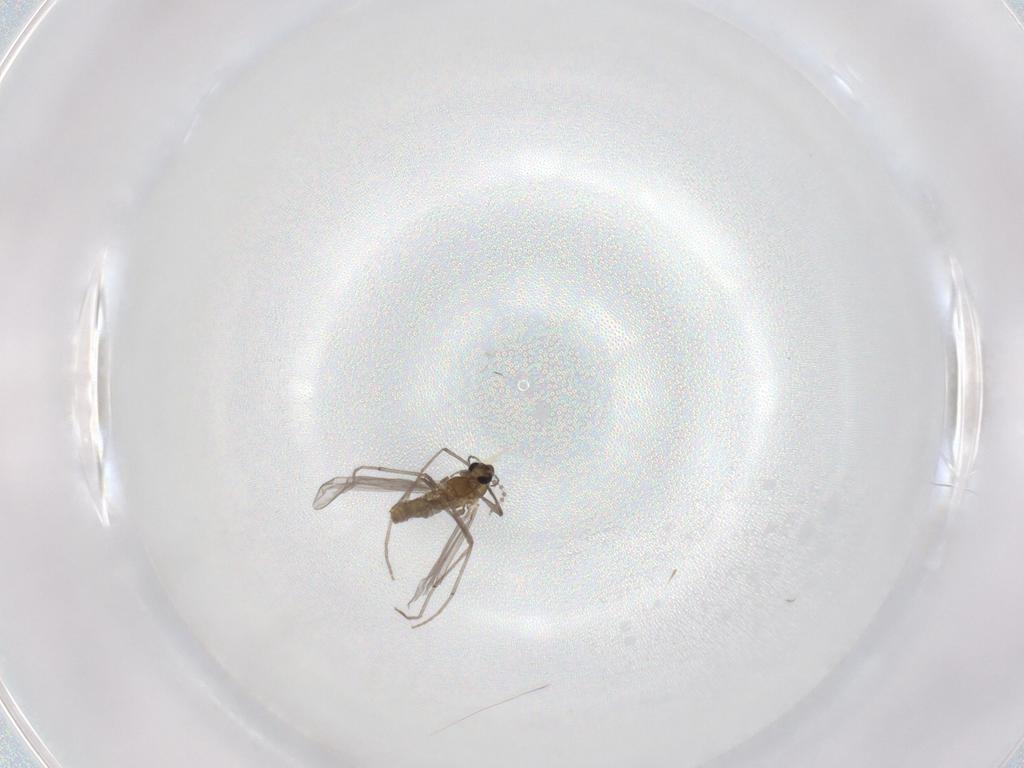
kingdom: Animalia
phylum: Arthropoda
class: Insecta
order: Diptera
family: Chironomidae
